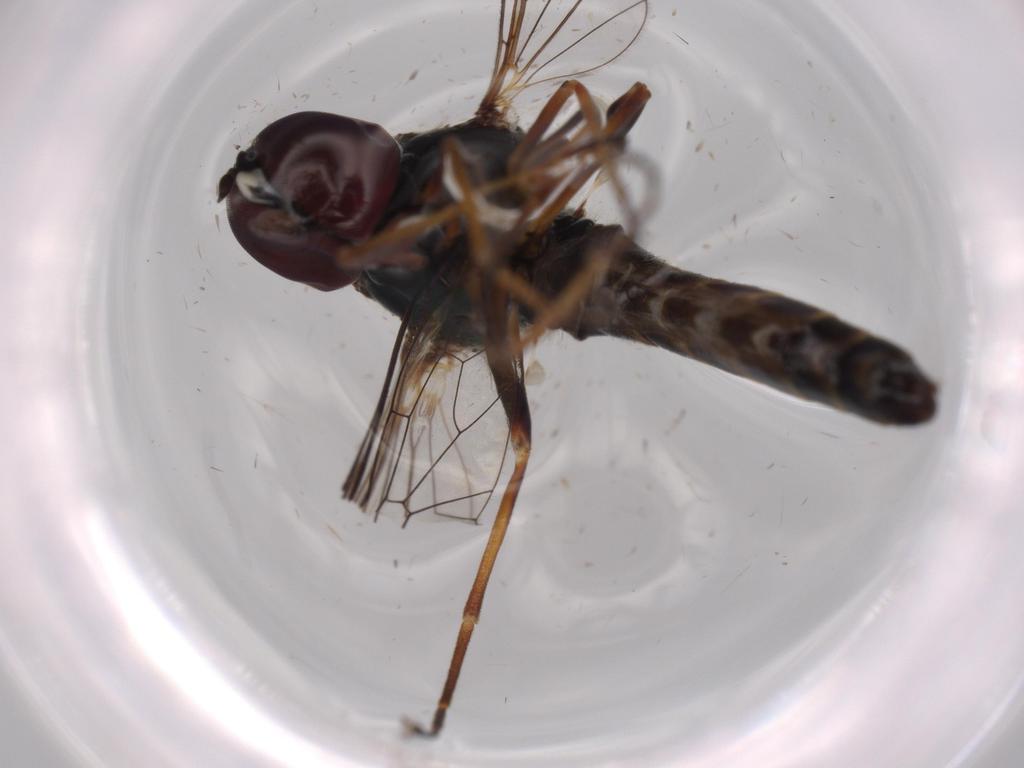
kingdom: Animalia
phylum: Arthropoda
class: Insecta
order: Diptera
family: Bombyliidae
